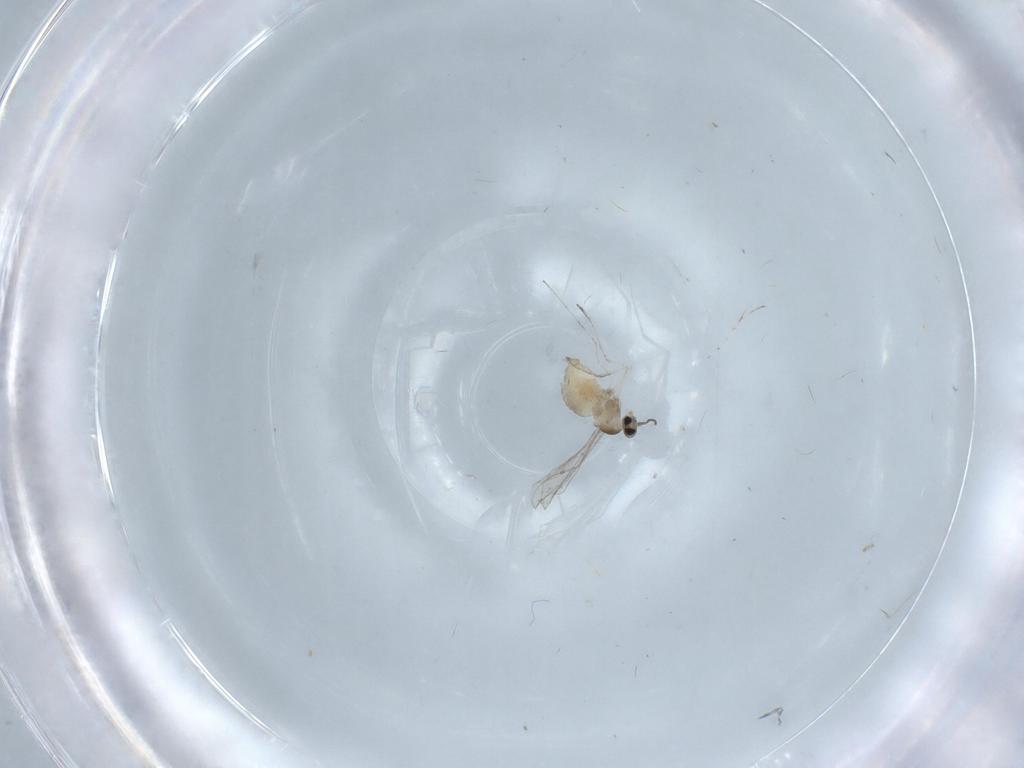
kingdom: Animalia
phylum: Arthropoda
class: Insecta
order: Diptera
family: Cecidomyiidae
